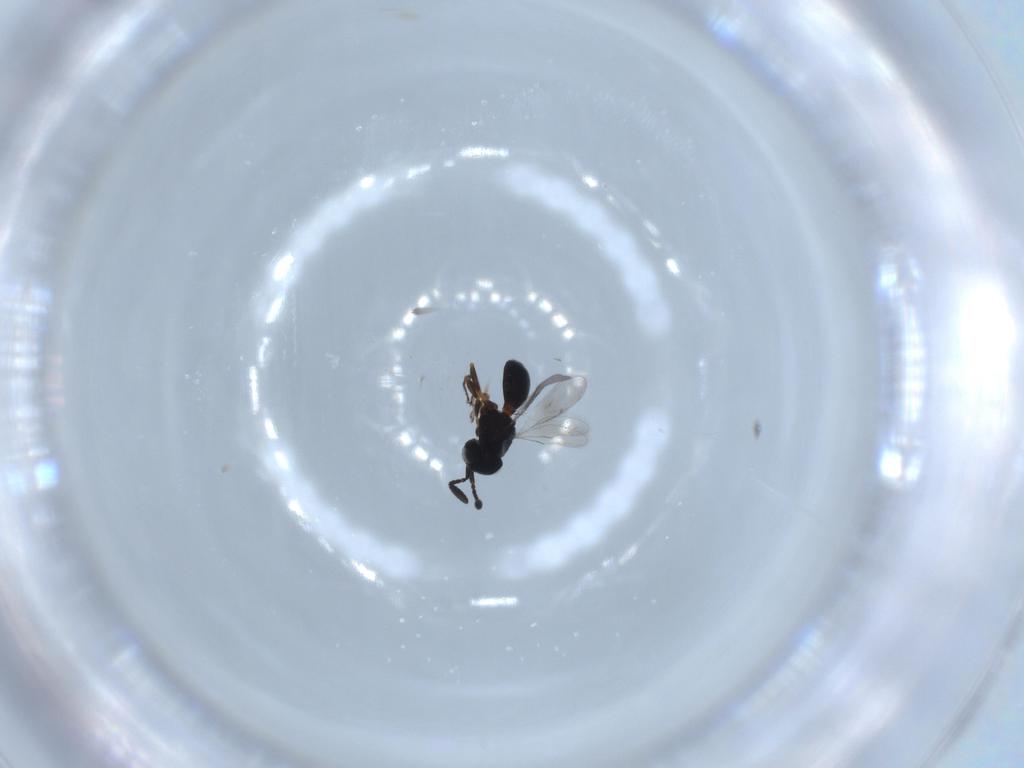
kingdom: Animalia
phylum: Arthropoda
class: Insecta
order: Hymenoptera
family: Scelionidae
